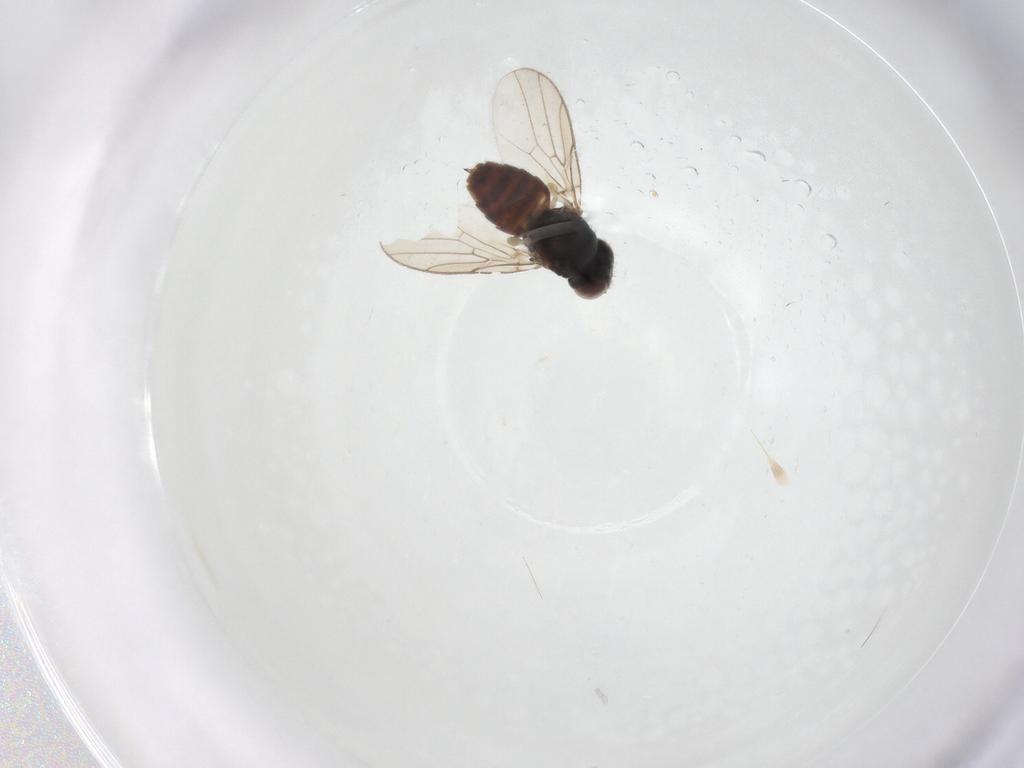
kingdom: Animalia
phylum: Arthropoda
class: Insecta
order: Diptera
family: Chloropidae
